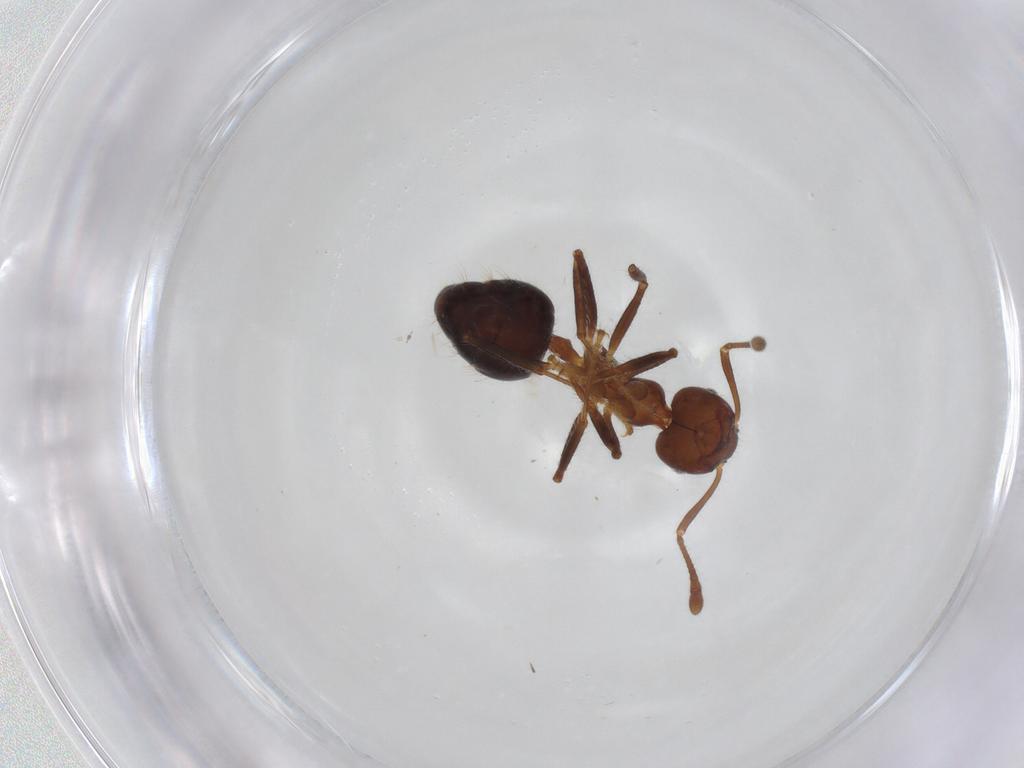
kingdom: Animalia
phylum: Arthropoda
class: Insecta
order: Hymenoptera
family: Formicidae
